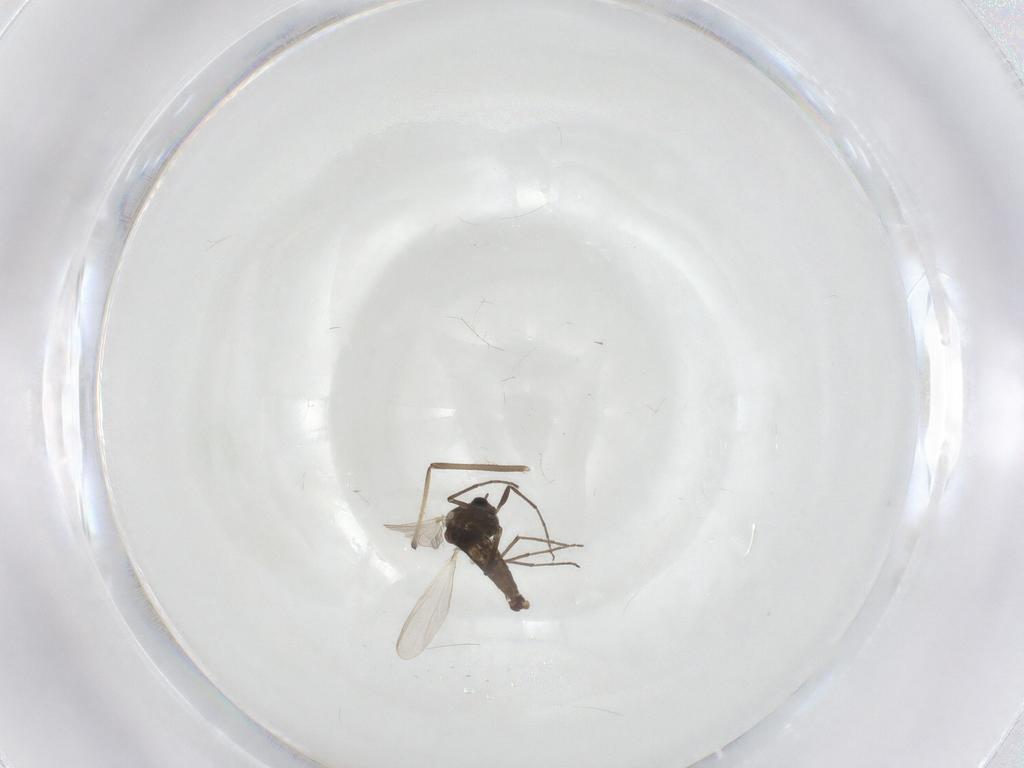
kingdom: Animalia
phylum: Arthropoda
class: Insecta
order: Diptera
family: Chironomidae
